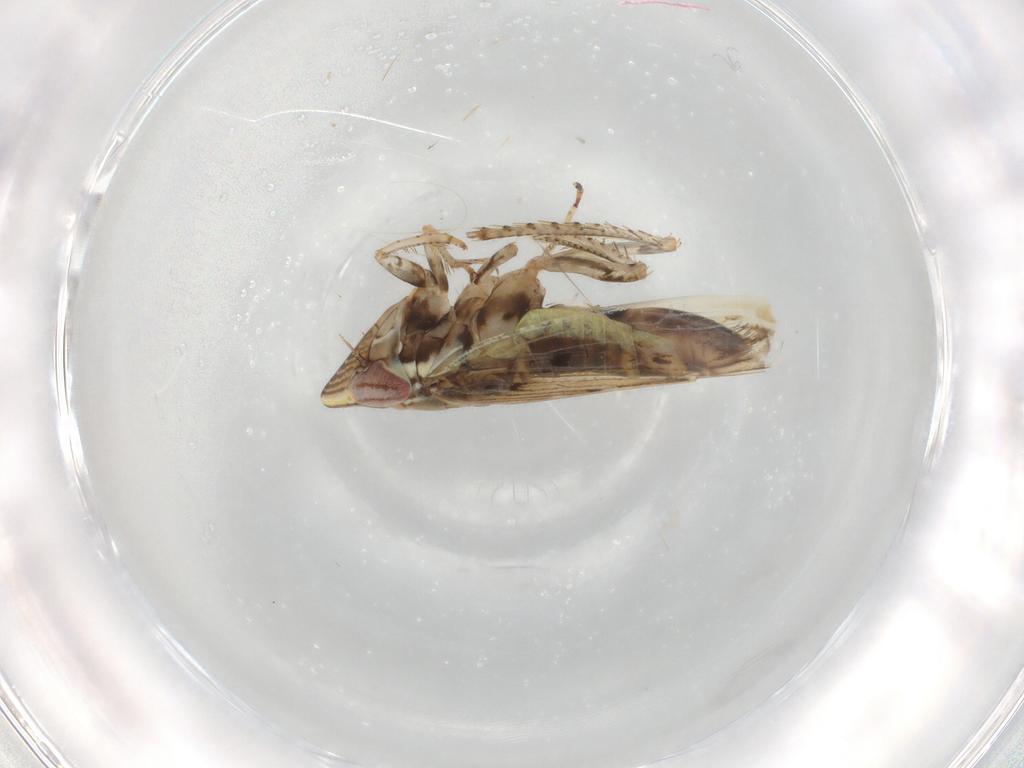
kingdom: Animalia
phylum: Arthropoda
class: Insecta
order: Hemiptera
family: Cicadellidae
